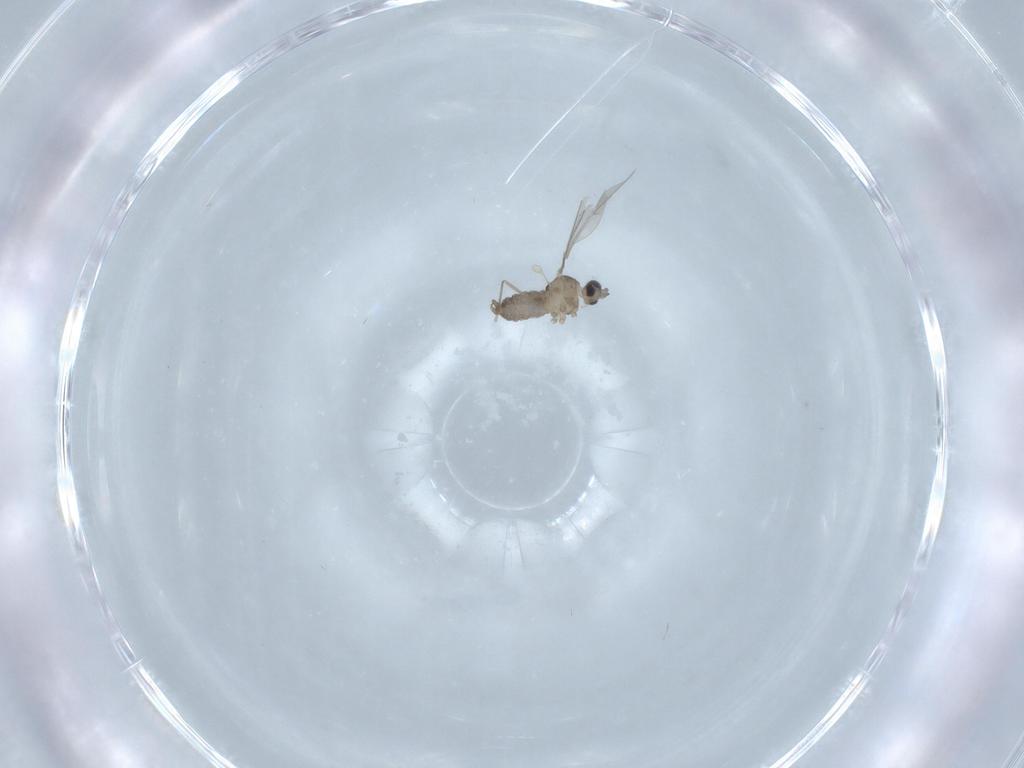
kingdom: Animalia
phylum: Arthropoda
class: Insecta
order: Diptera
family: Cecidomyiidae
